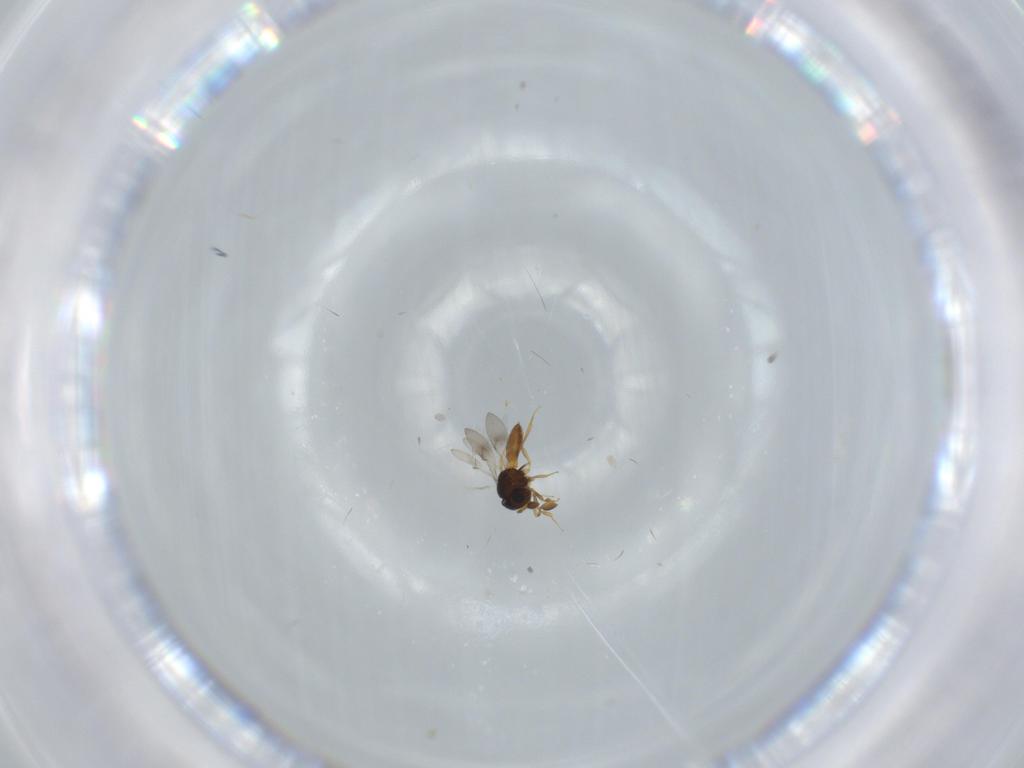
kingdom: Animalia
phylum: Arthropoda
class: Insecta
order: Hymenoptera
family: Scelionidae
